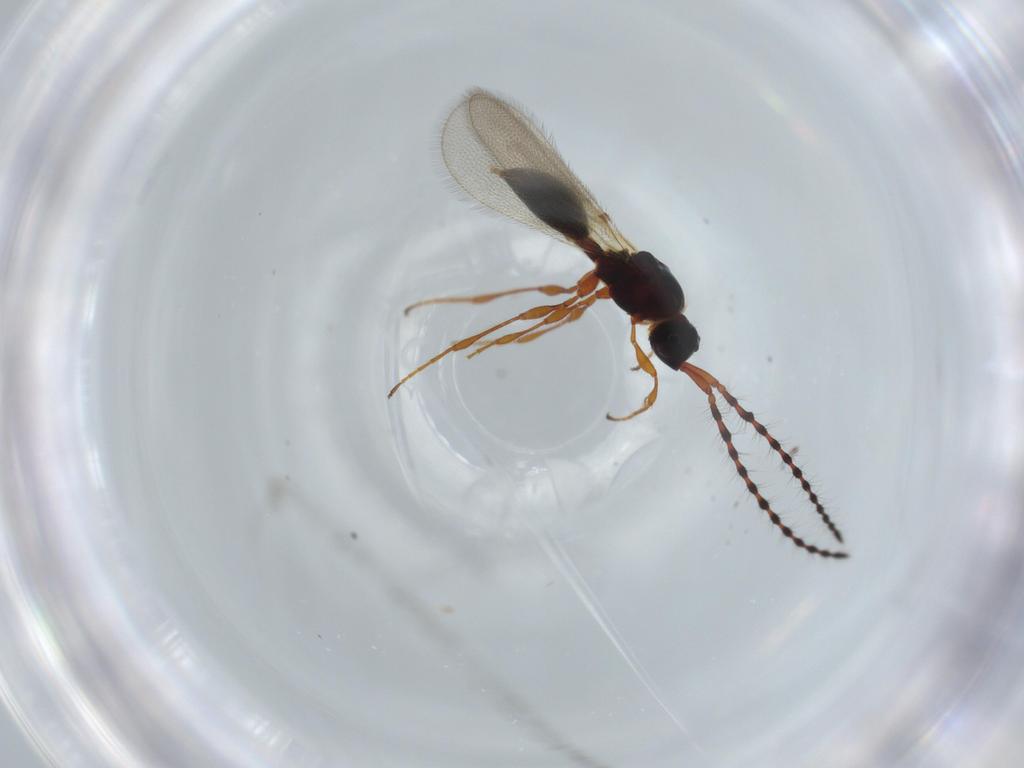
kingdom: Animalia
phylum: Arthropoda
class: Insecta
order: Hymenoptera
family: Diapriidae
